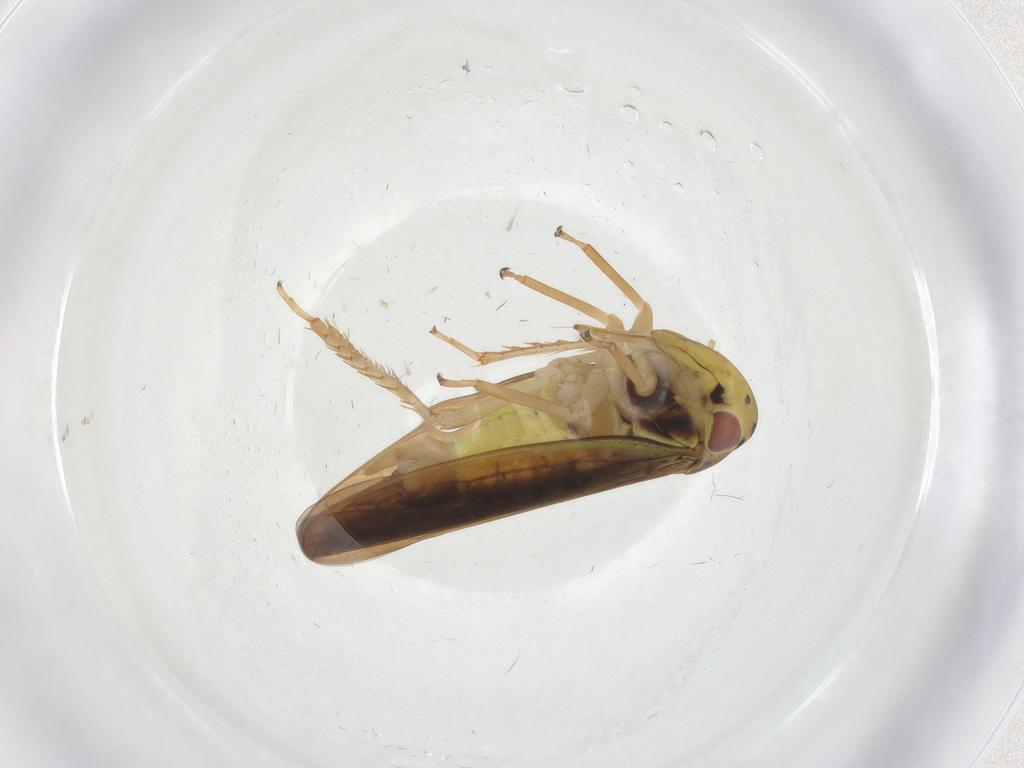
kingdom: Animalia
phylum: Arthropoda
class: Insecta
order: Hemiptera
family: Cicadellidae
